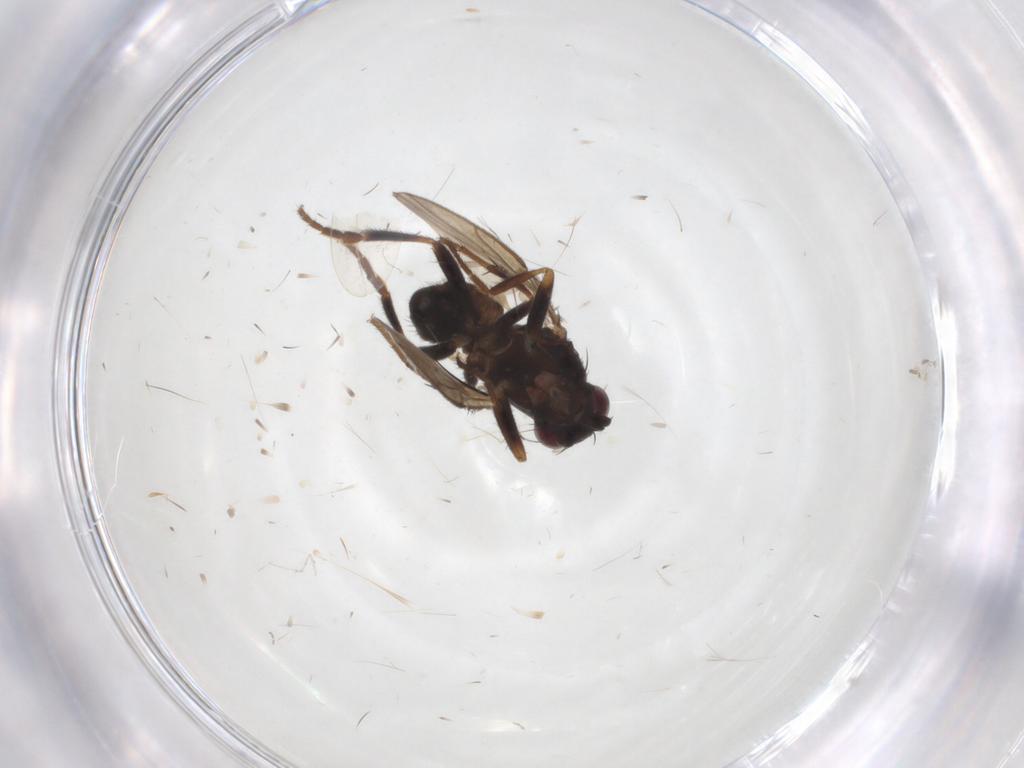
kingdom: Animalia
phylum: Arthropoda
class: Insecta
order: Diptera
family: Sphaeroceridae
